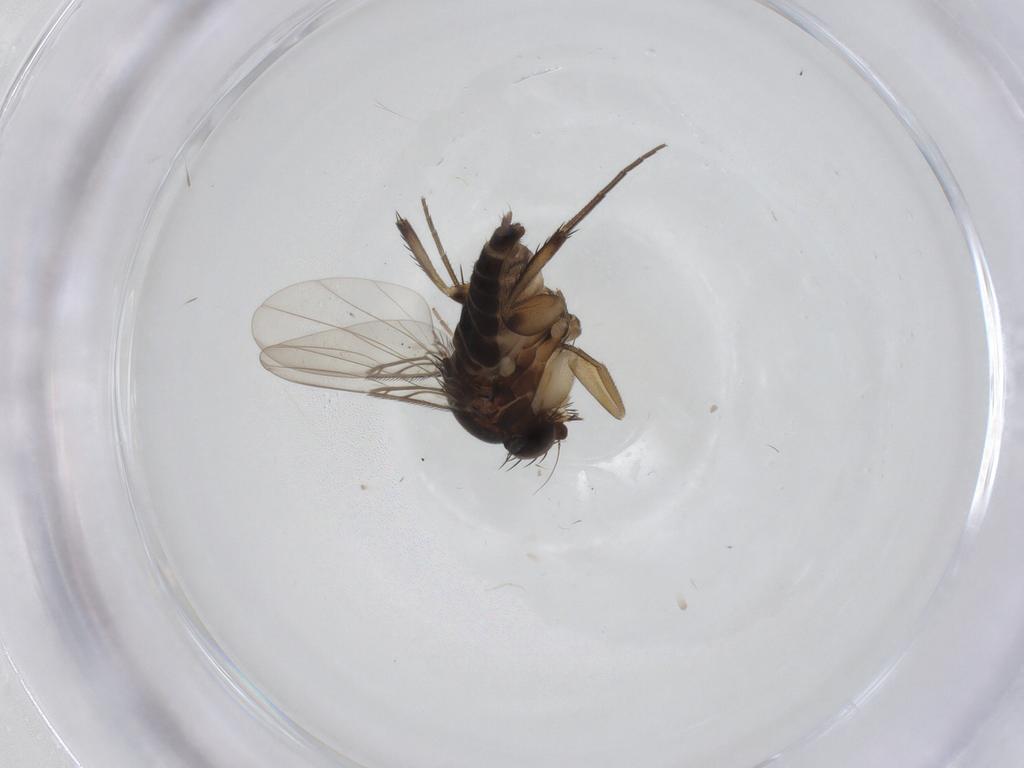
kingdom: Animalia
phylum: Arthropoda
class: Insecta
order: Diptera
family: Phoridae
